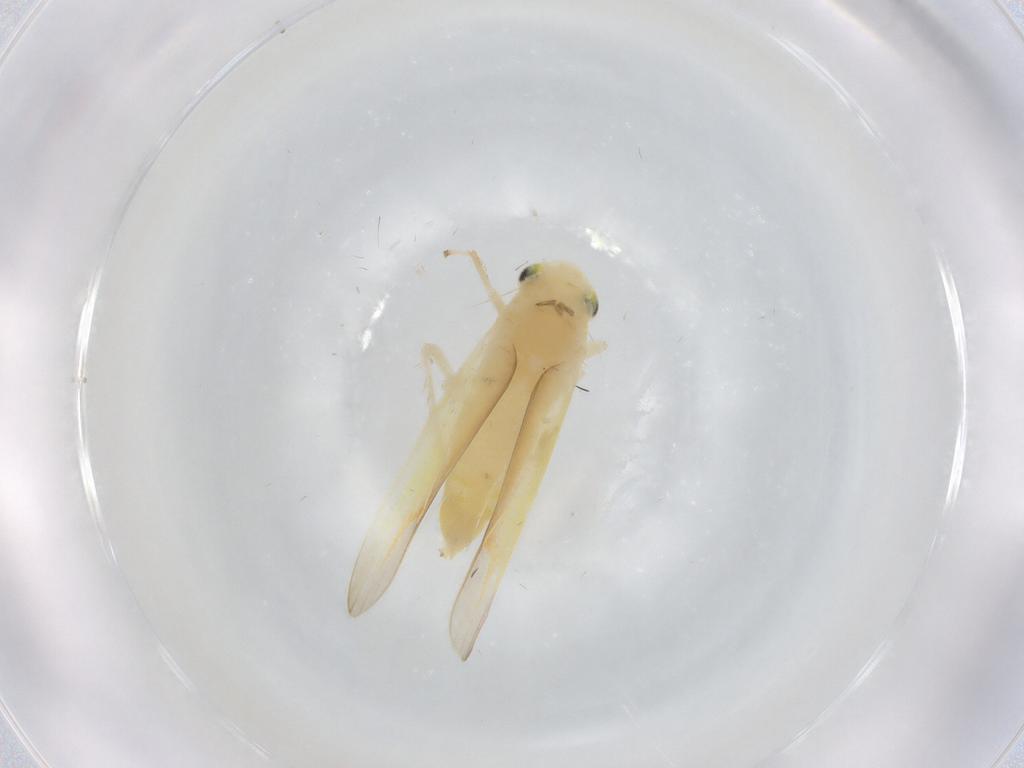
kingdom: Animalia
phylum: Arthropoda
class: Insecta
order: Hemiptera
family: Cicadellidae
